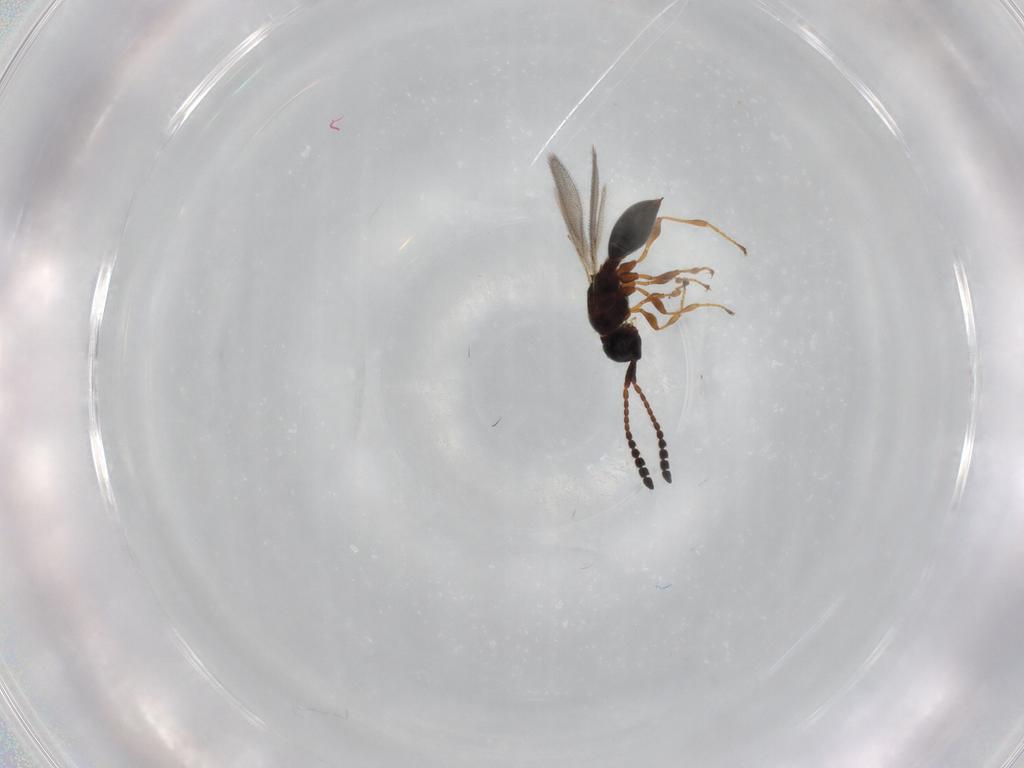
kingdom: Animalia
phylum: Arthropoda
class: Insecta
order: Hymenoptera
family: Diapriidae
